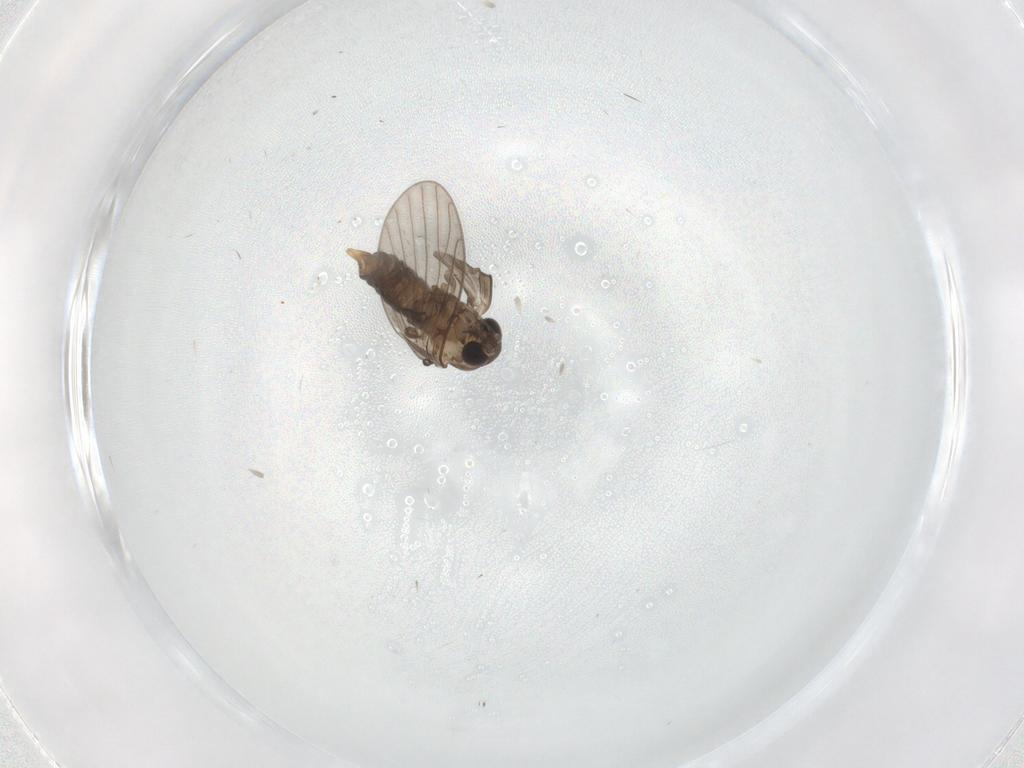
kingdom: Animalia
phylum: Arthropoda
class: Insecta
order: Diptera
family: Psychodidae
